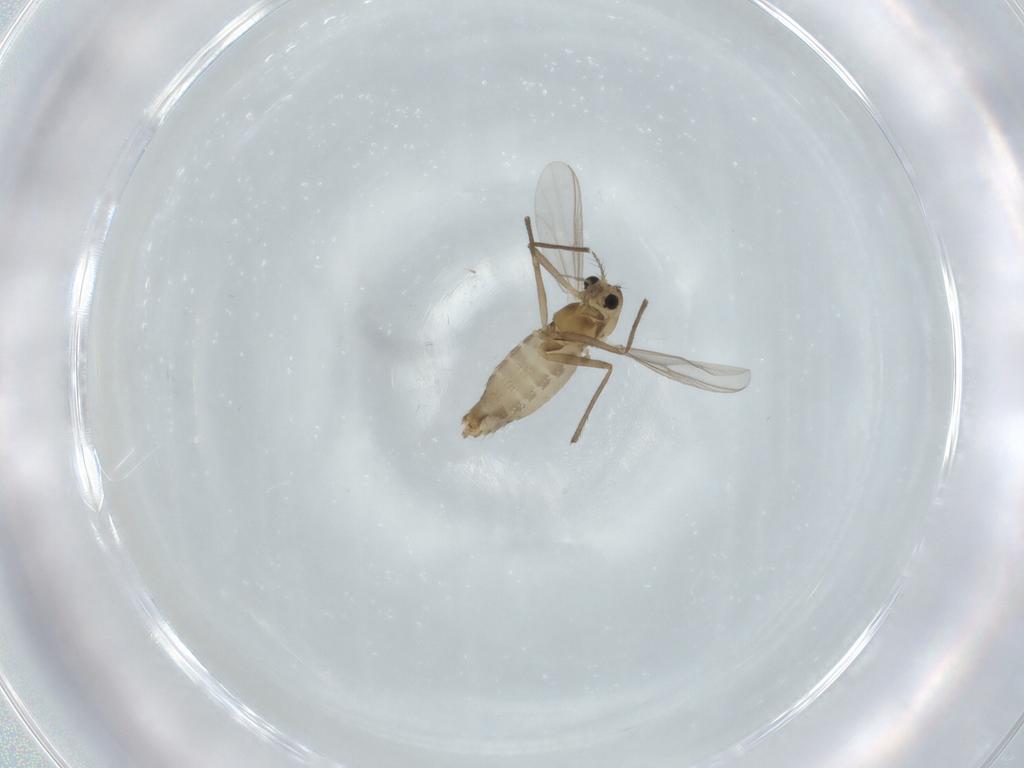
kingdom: Animalia
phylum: Arthropoda
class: Insecta
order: Diptera
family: Chironomidae
